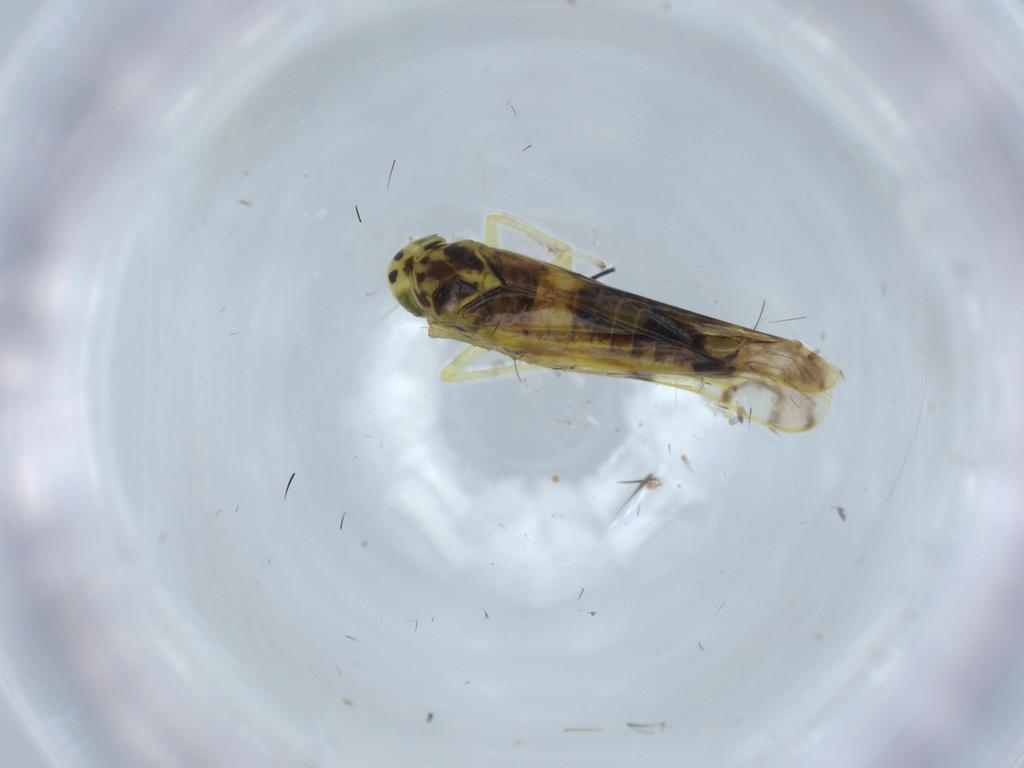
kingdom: Animalia
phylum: Arthropoda
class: Insecta
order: Hemiptera
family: Cicadellidae
